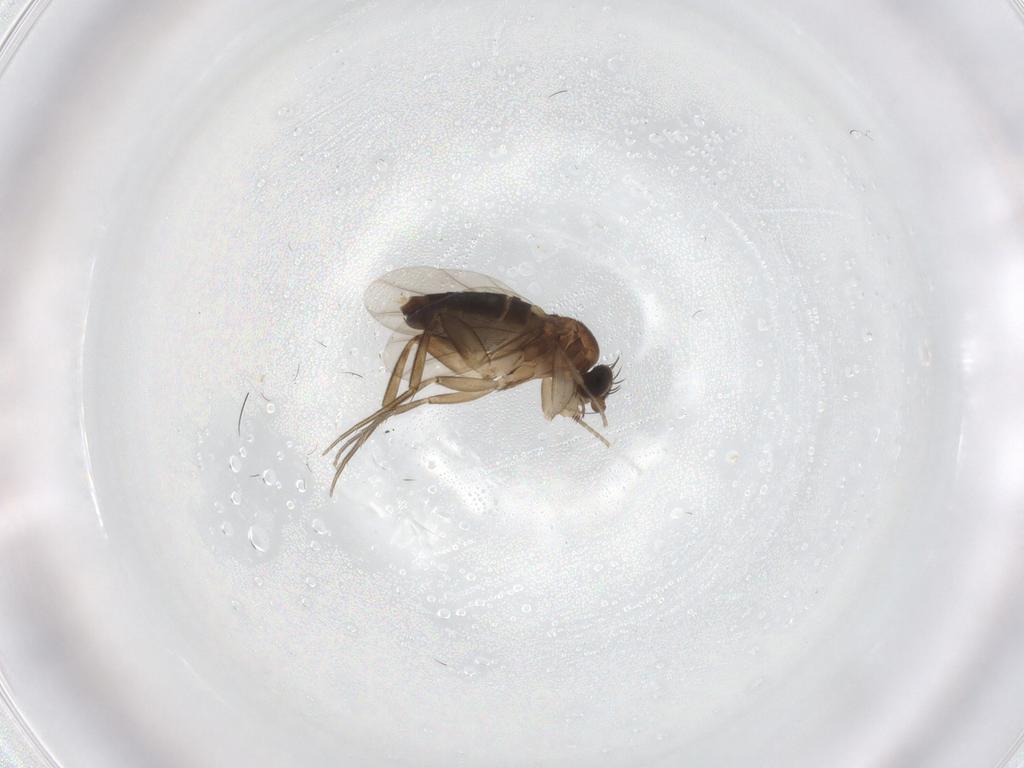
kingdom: Animalia
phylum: Arthropoda
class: Insecta
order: Diptera
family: Phoridae
